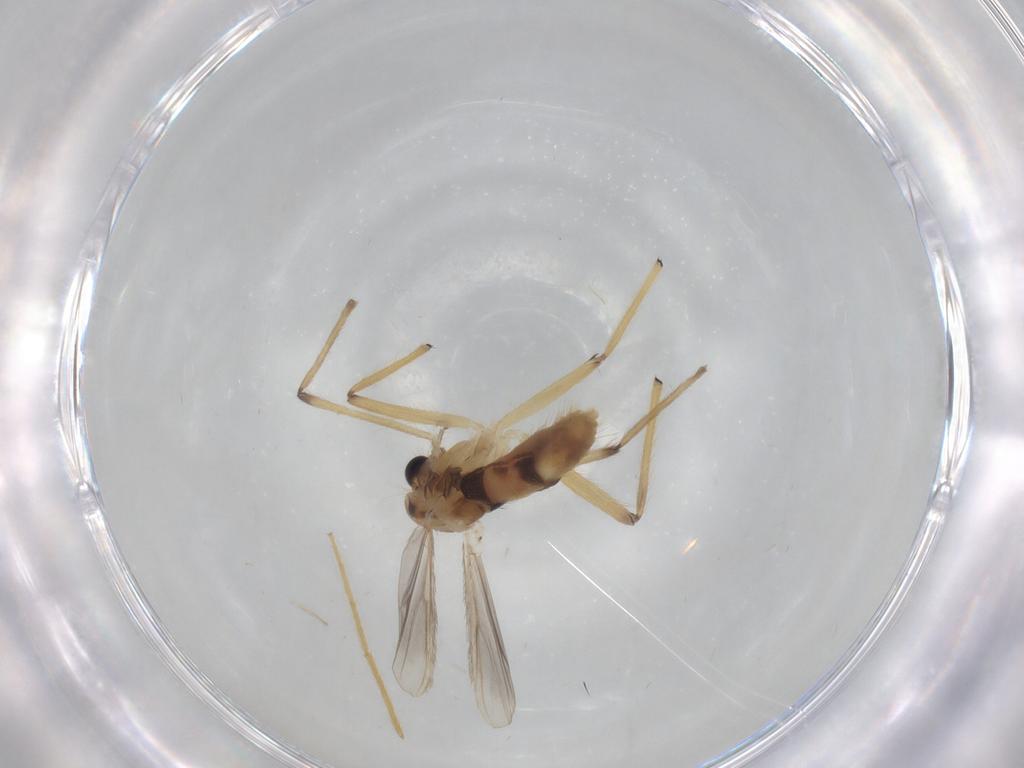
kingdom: Animalia
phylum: Arthropoda
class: Insecta
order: Diptera
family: Chironomidae
